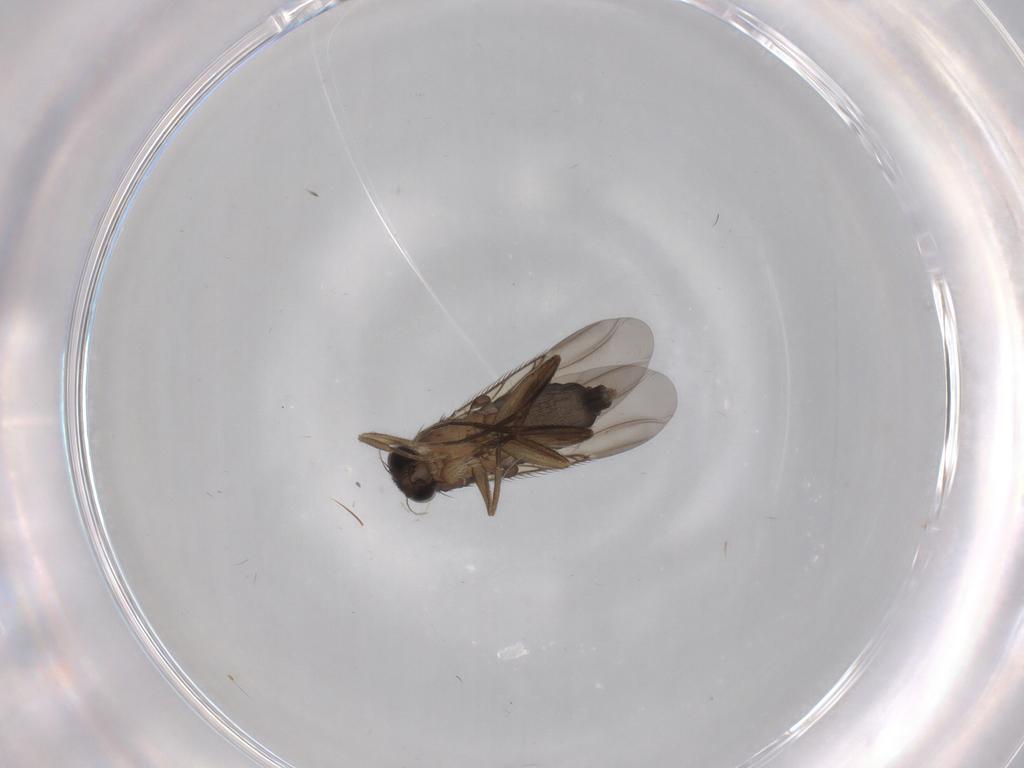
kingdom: Animalia
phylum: Arthropoda
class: Insecta
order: Diptera
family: Phoridae
